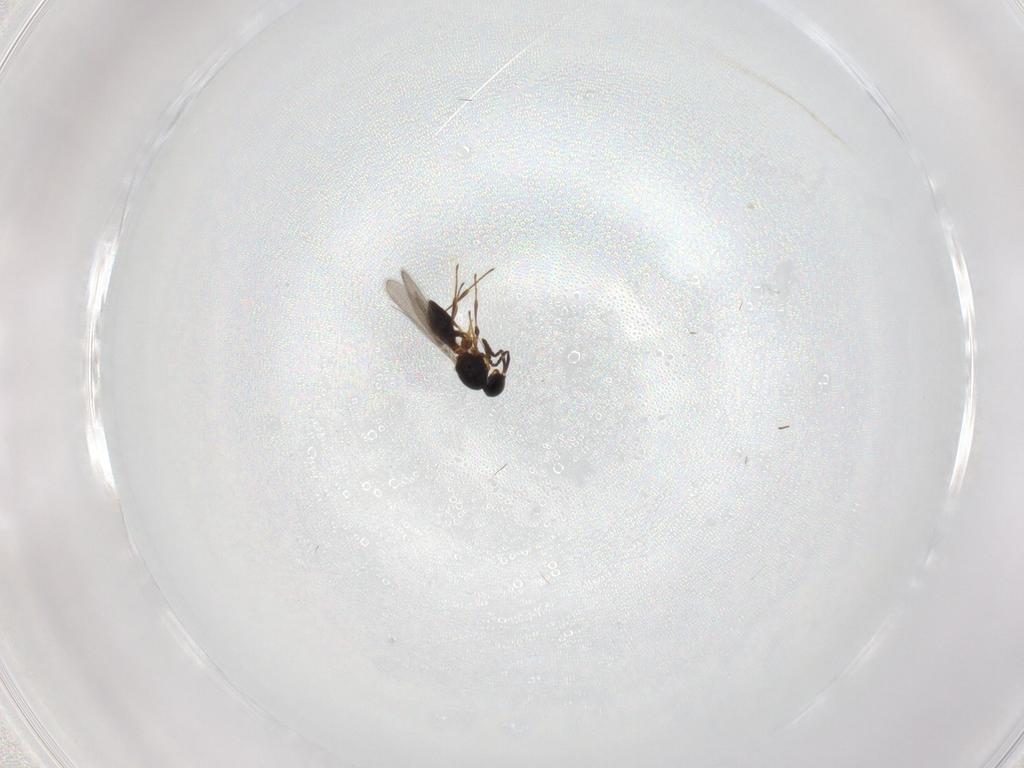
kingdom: Animalia
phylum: Arthropoda
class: Insecta
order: Hymenoptera
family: Platygastridae
